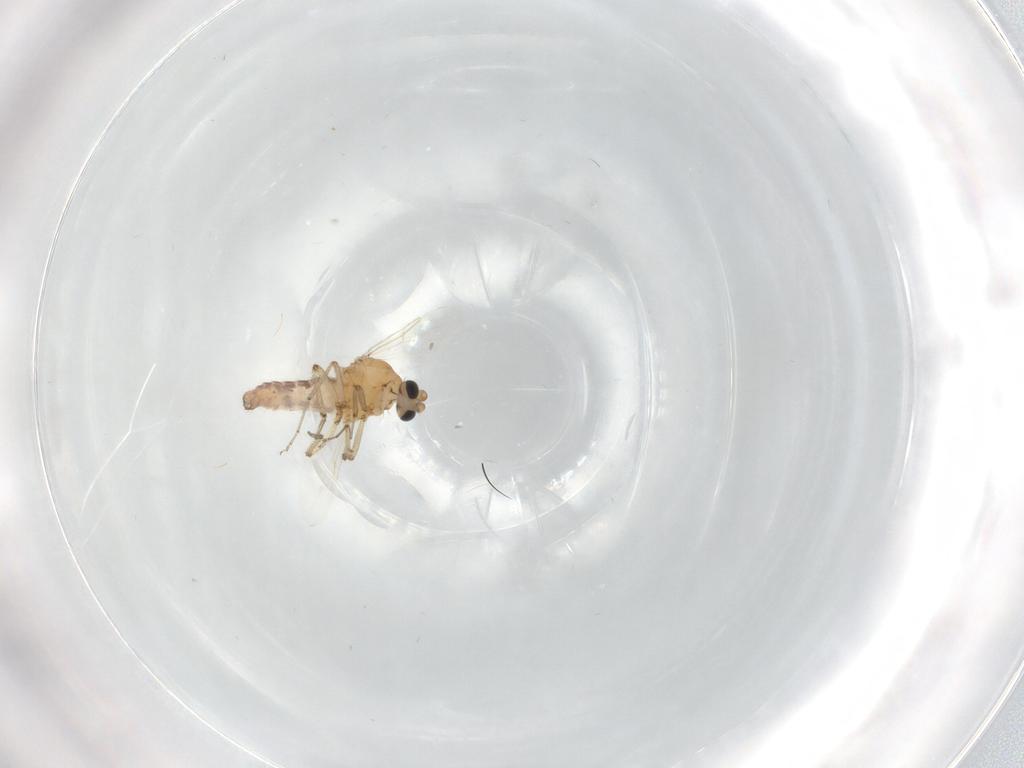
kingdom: Animalia
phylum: Arthropoda
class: Insecta
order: Diptera
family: Ceratopogonidae
